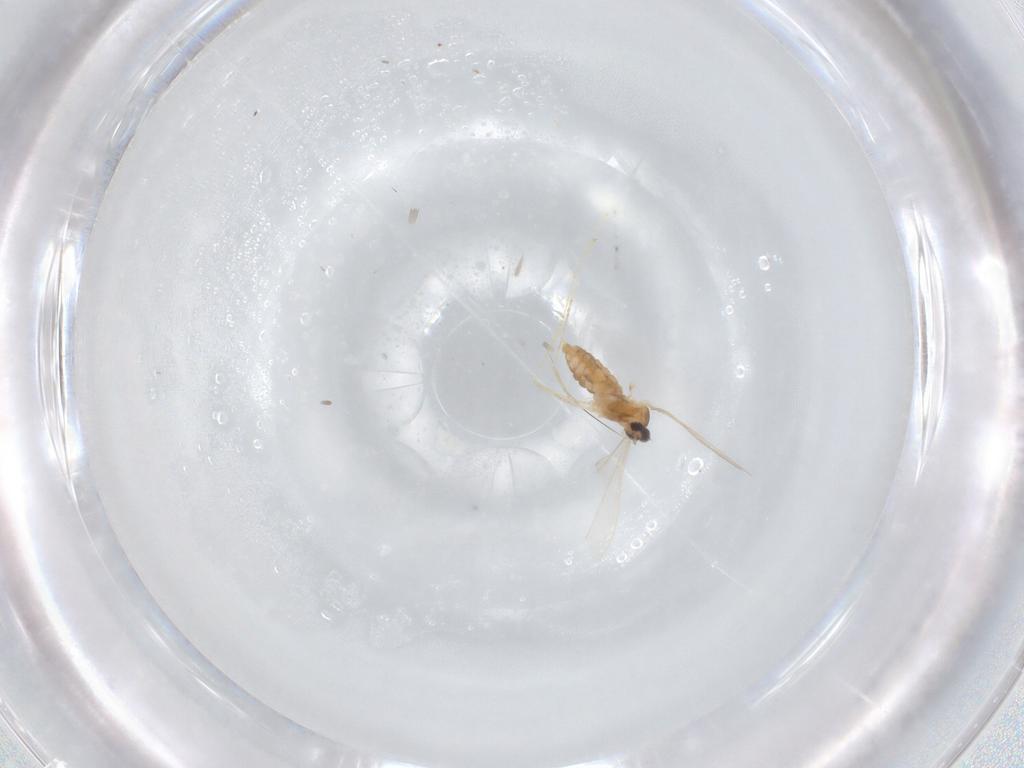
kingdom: Animalia
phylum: Arthropoda
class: Insecta
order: Diptera
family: Cecidomyiidae
